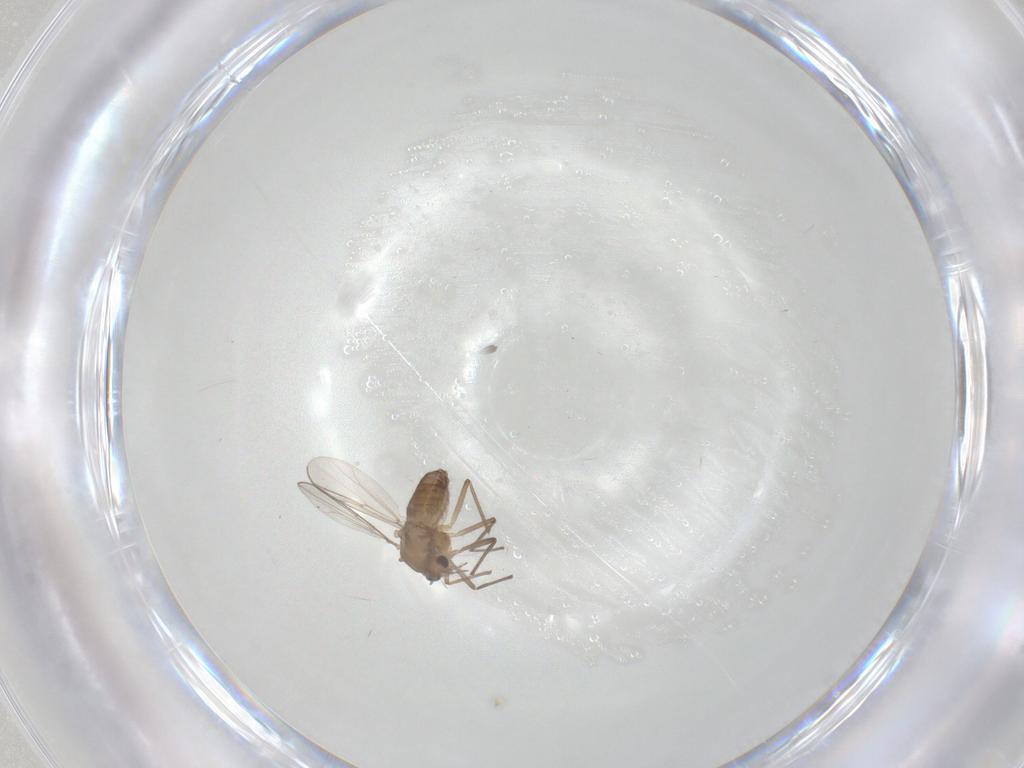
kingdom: Animalia
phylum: Arthropoda
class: Insecta
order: Diptera
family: Chironomidae
